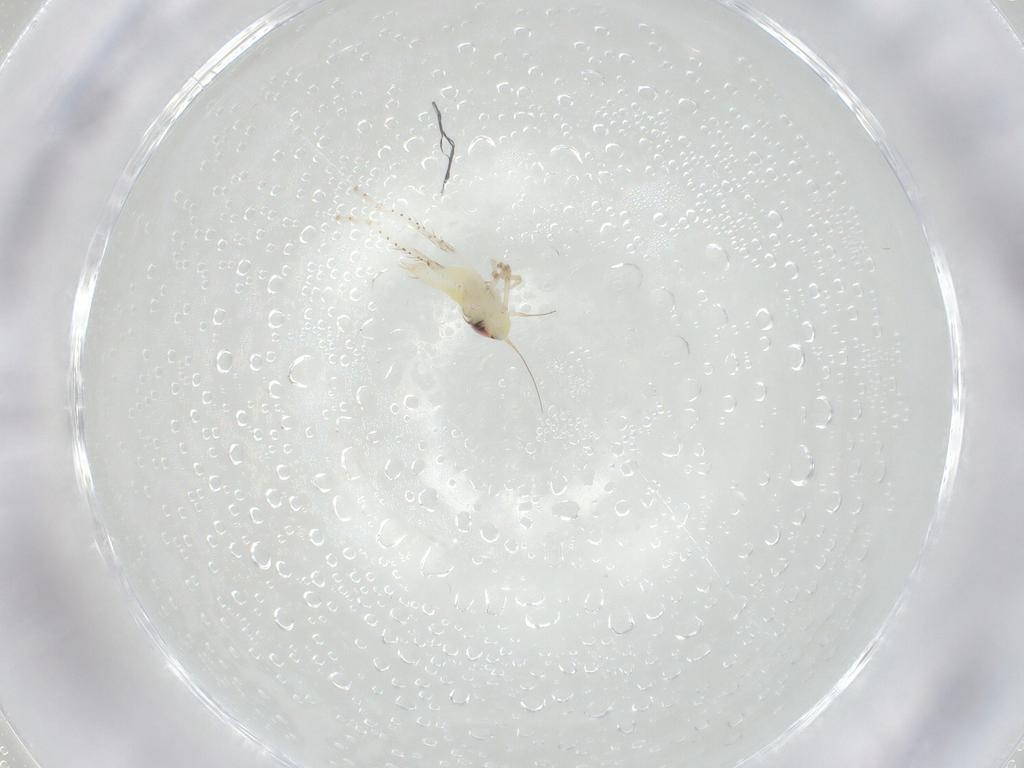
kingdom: Animalia
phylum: Arthropoda
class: Insecta
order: Hemiptera
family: Cicadellidae
